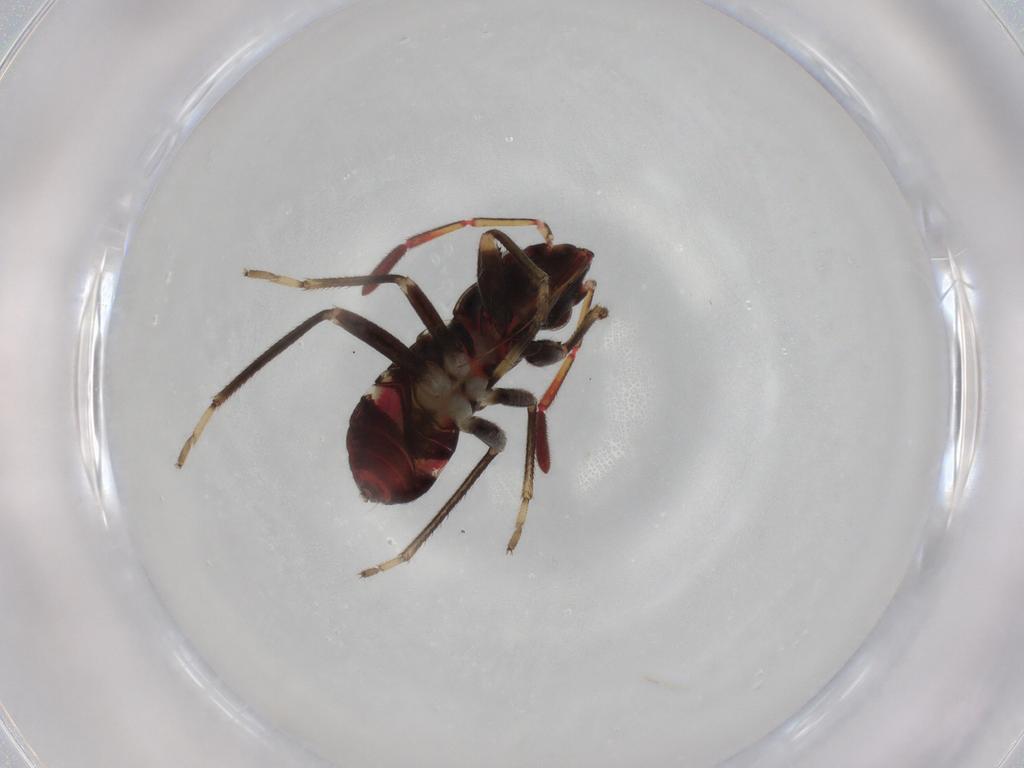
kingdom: Animalia
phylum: Arthropoda
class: Insecta
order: Hemiptera
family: Rhyparochromidae
